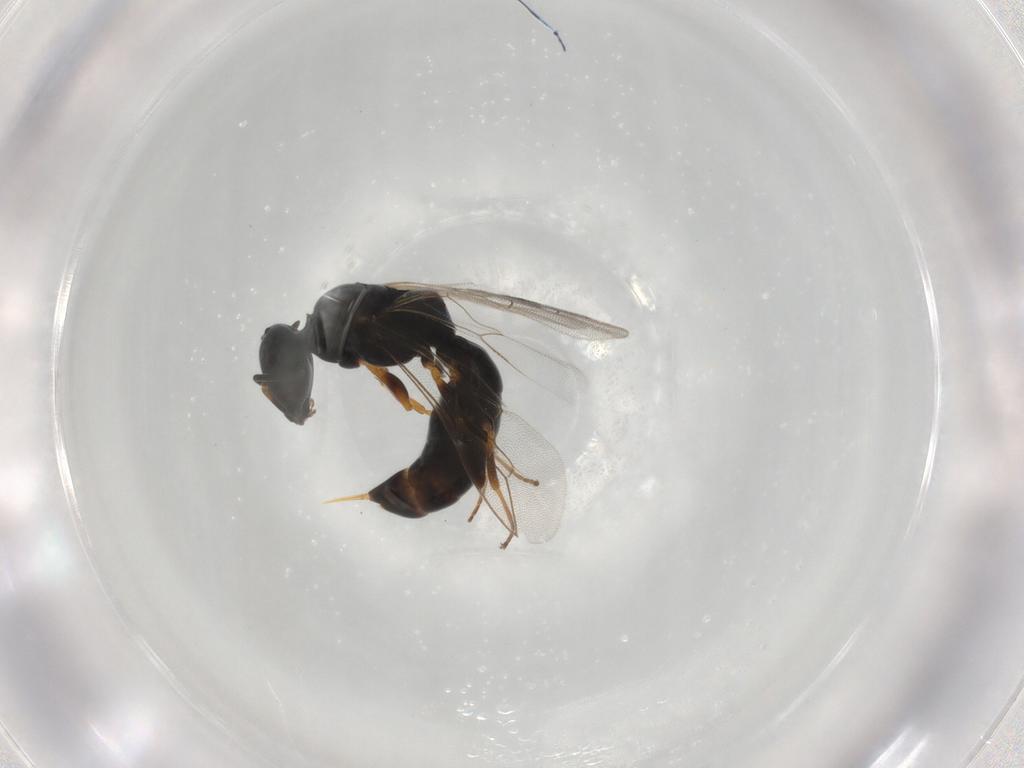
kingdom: Animalia
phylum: Arthropoda
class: Insecta
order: Hymenoptera
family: Crabronidae
